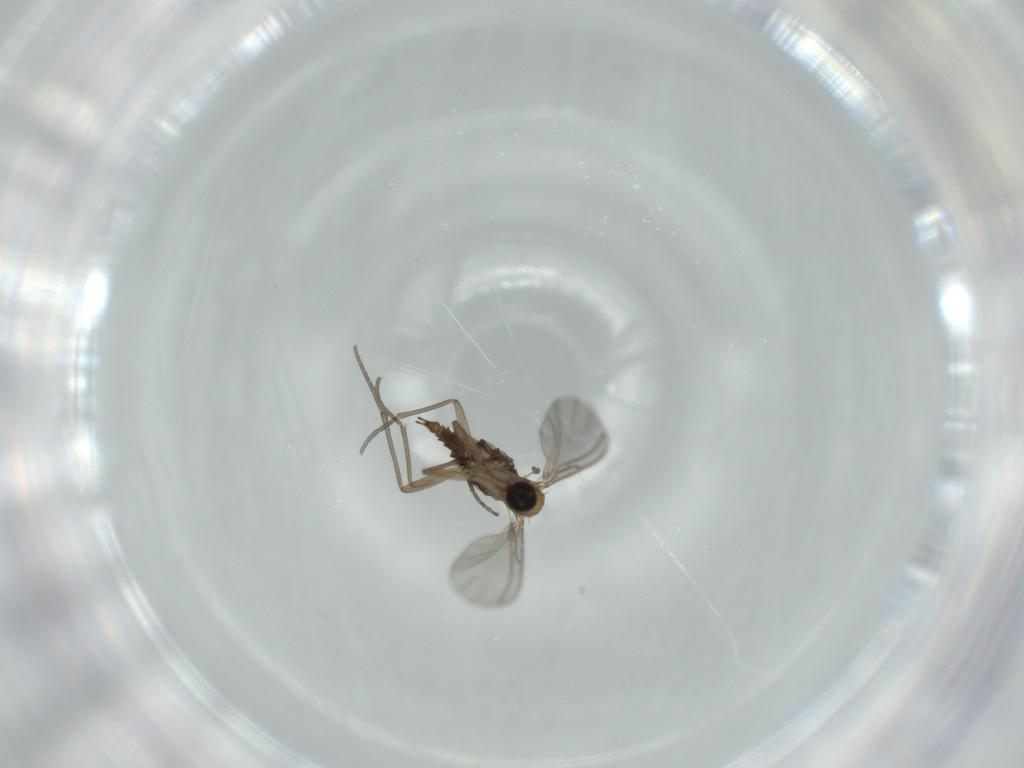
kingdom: Animalia
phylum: Arthropoda
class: Insecta
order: Diptera
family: Sciaridae
